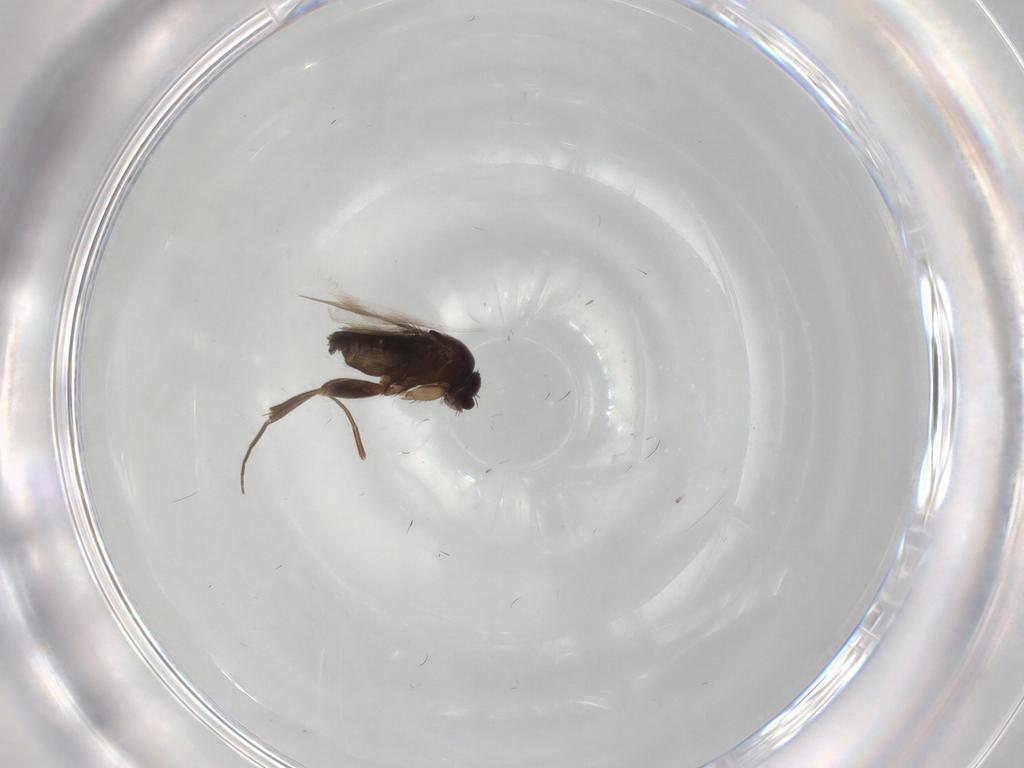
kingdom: Animalia
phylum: Arthropoda
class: Insecta
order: Diptera
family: Phoridae
